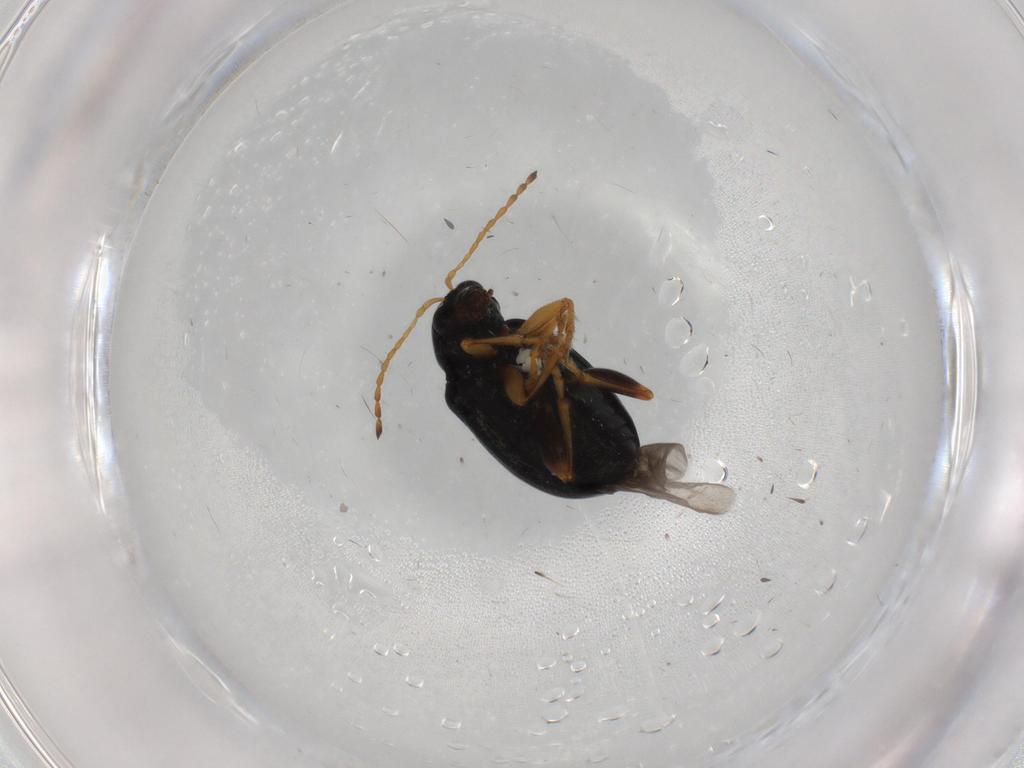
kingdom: Animalia
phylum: Arthropoda
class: Insecta
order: Coleoptera
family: Chrysomelidae
